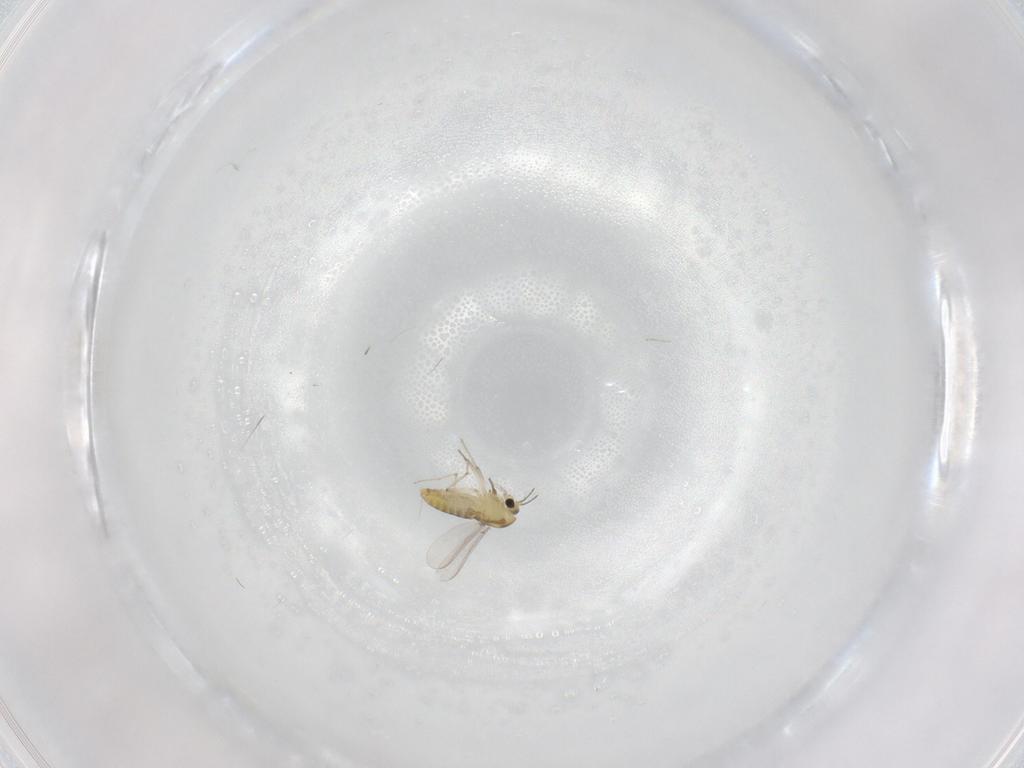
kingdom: Animalia
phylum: Arthropoda
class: Insecta
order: Diptera
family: Chironomidae
